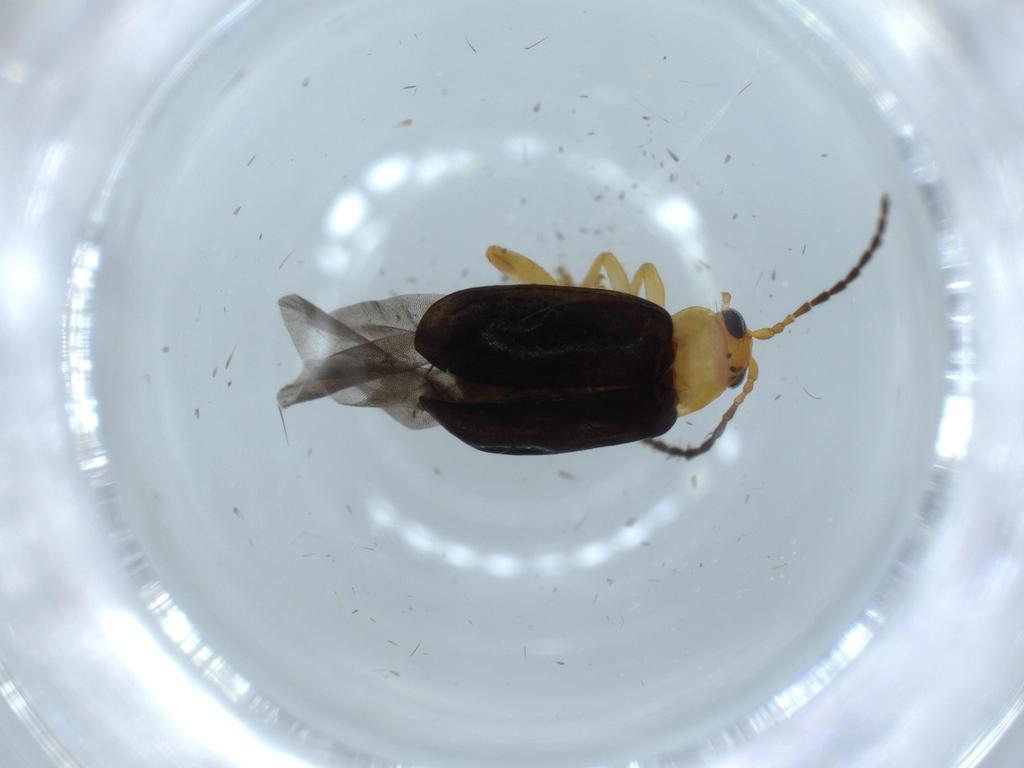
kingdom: Animalia
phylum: Arthropoda
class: Insecta
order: Coleoptera
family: Chrysomelidae
